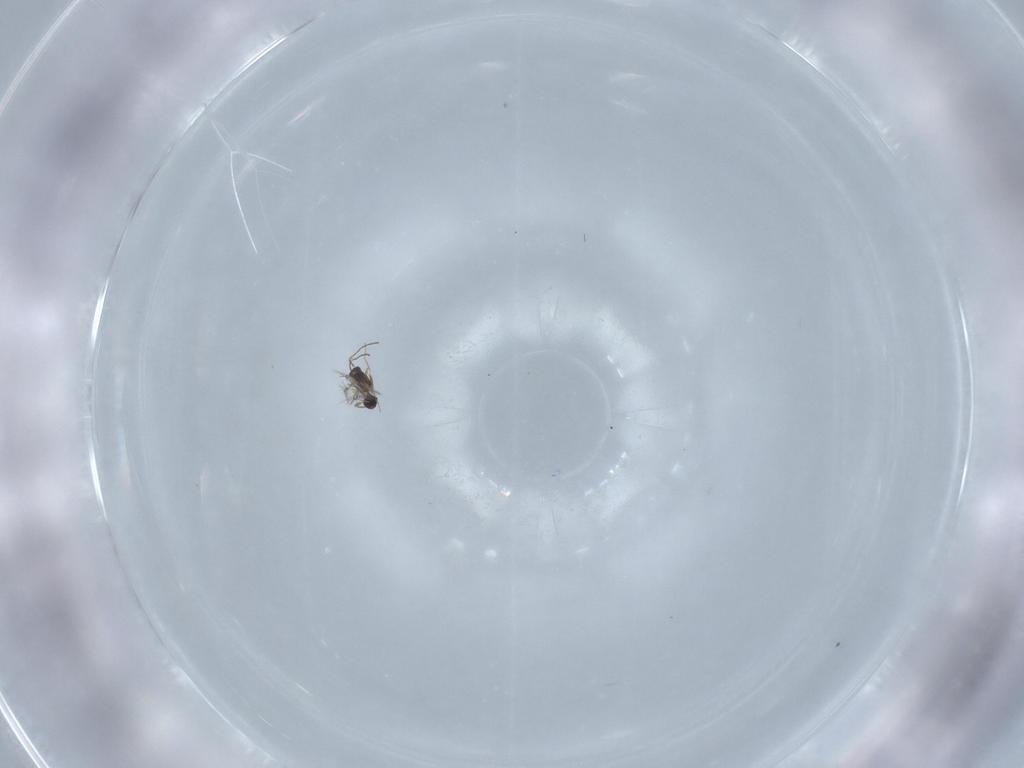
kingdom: Animalia
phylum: Arthropoda
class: Insecta
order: Hymenoptera
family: Mymaridae
